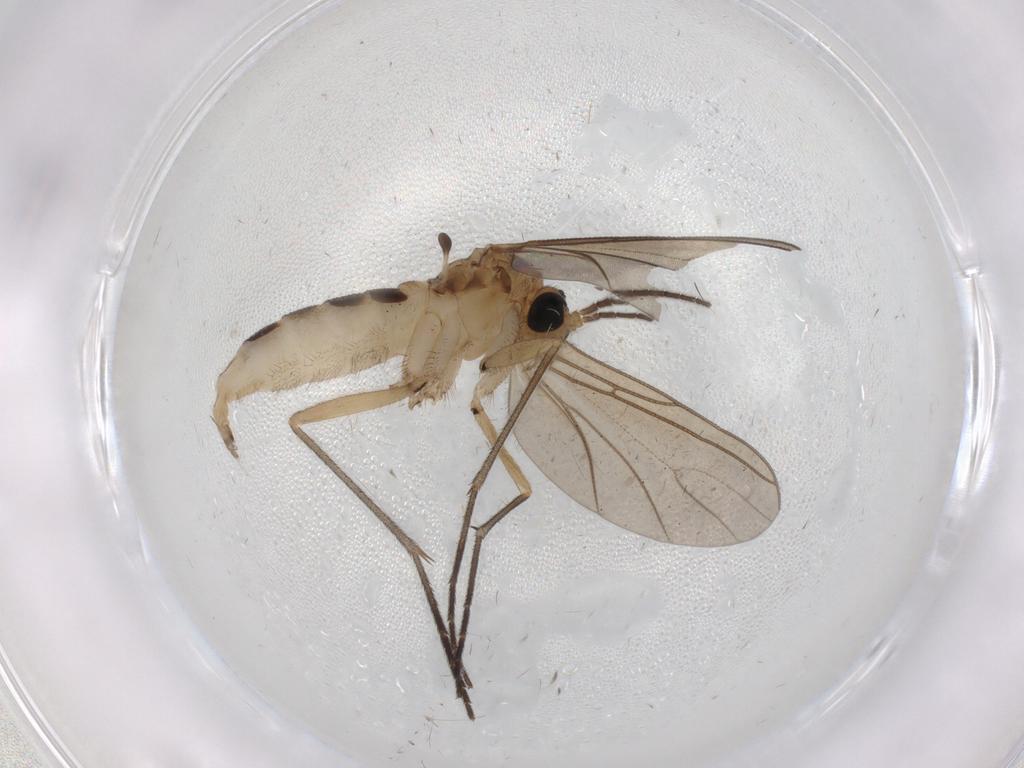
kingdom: Animalia
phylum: Arthropoda
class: Insecta
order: Diptera
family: Sciaridae
